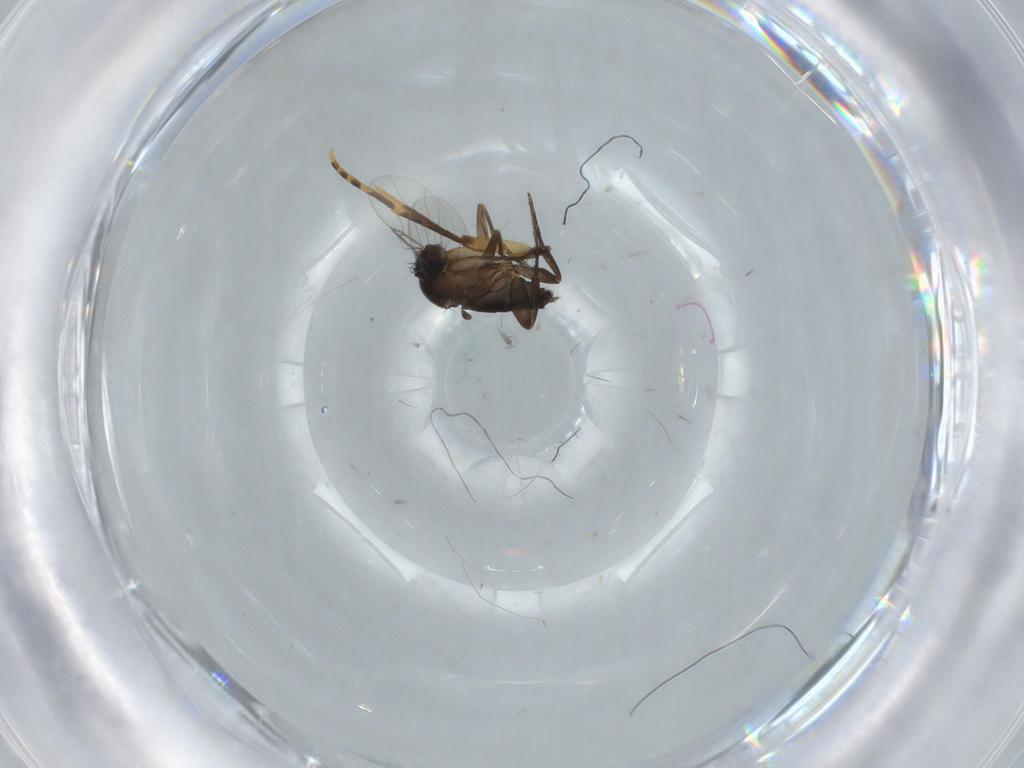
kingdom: Animalia
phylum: Arthropoda
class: Insecta
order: Diptera
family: Phoridae
